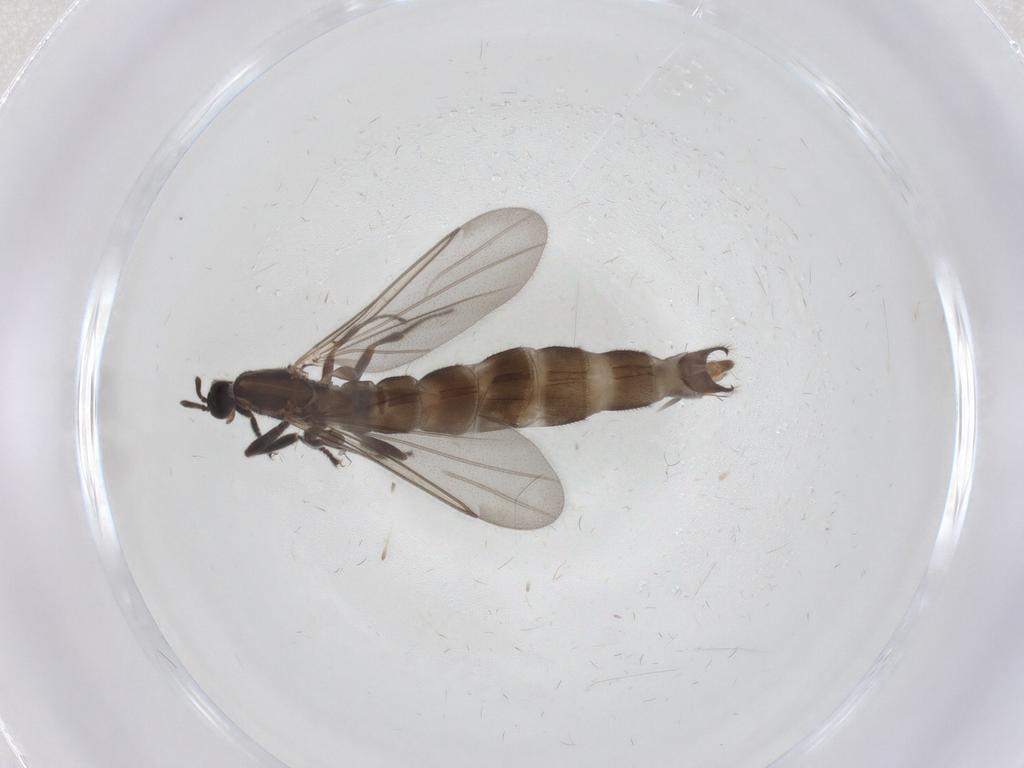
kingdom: Animalia
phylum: Arthropoda
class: Insecta
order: Diptera
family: Scatopsidae
